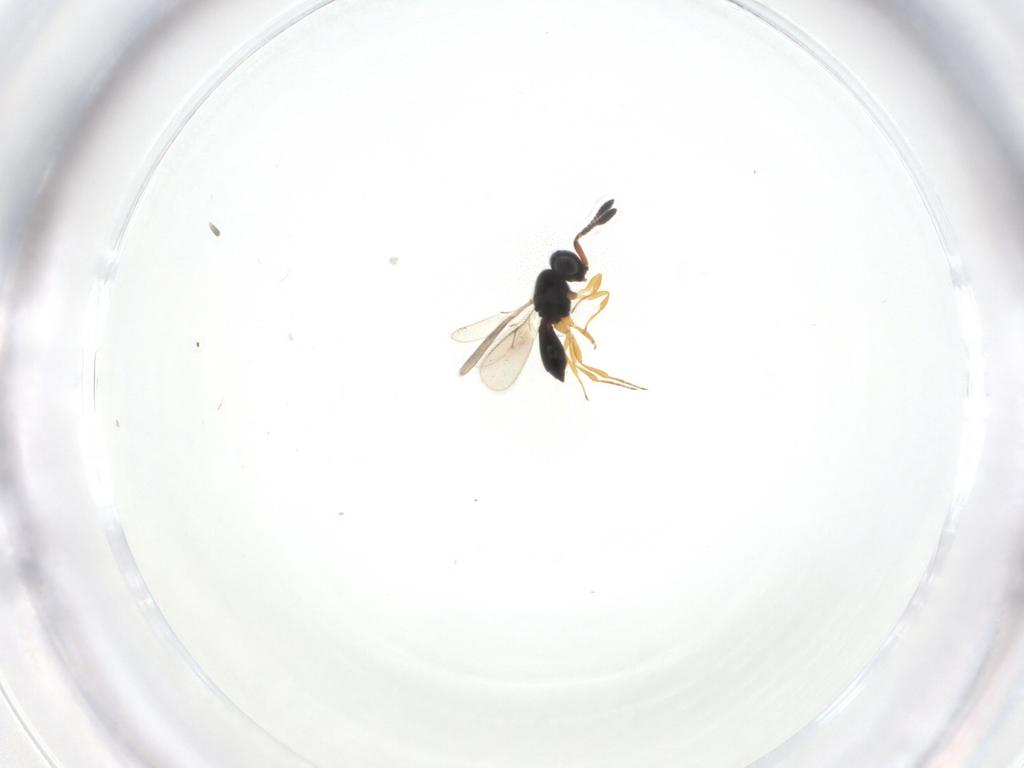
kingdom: Animalia
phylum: Arthropoda
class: Insecta
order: Hymenoptera
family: Scelionidae
